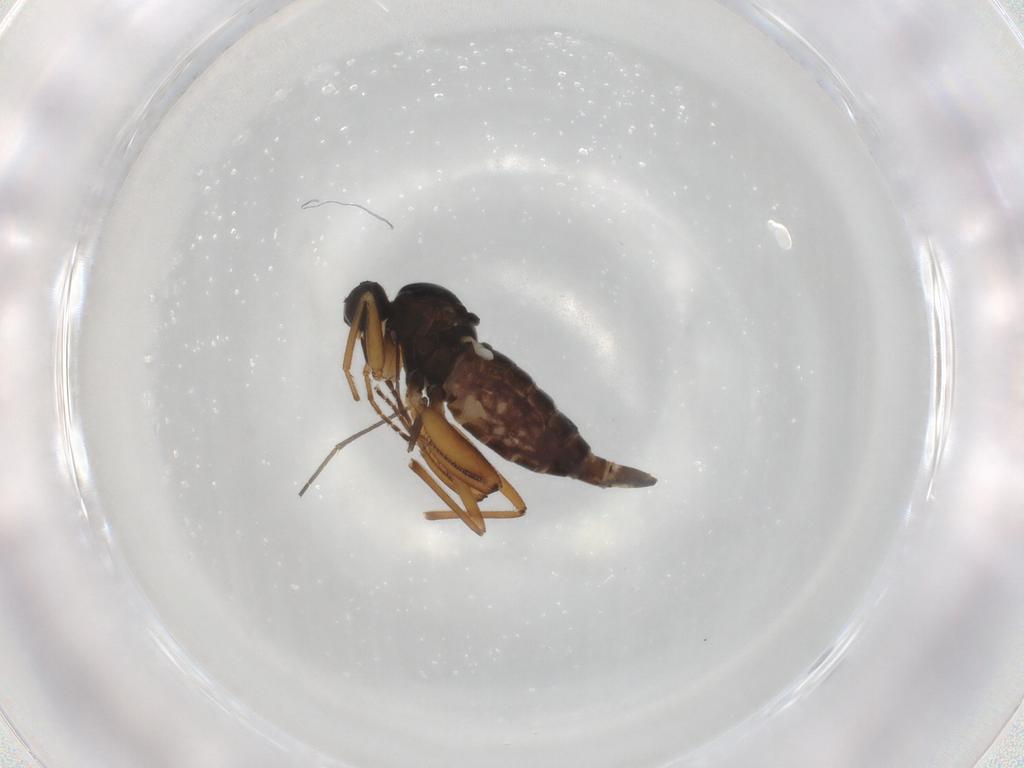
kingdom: Animalia
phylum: Arthropoda
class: Insecta
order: Diptera
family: Hybotidae
